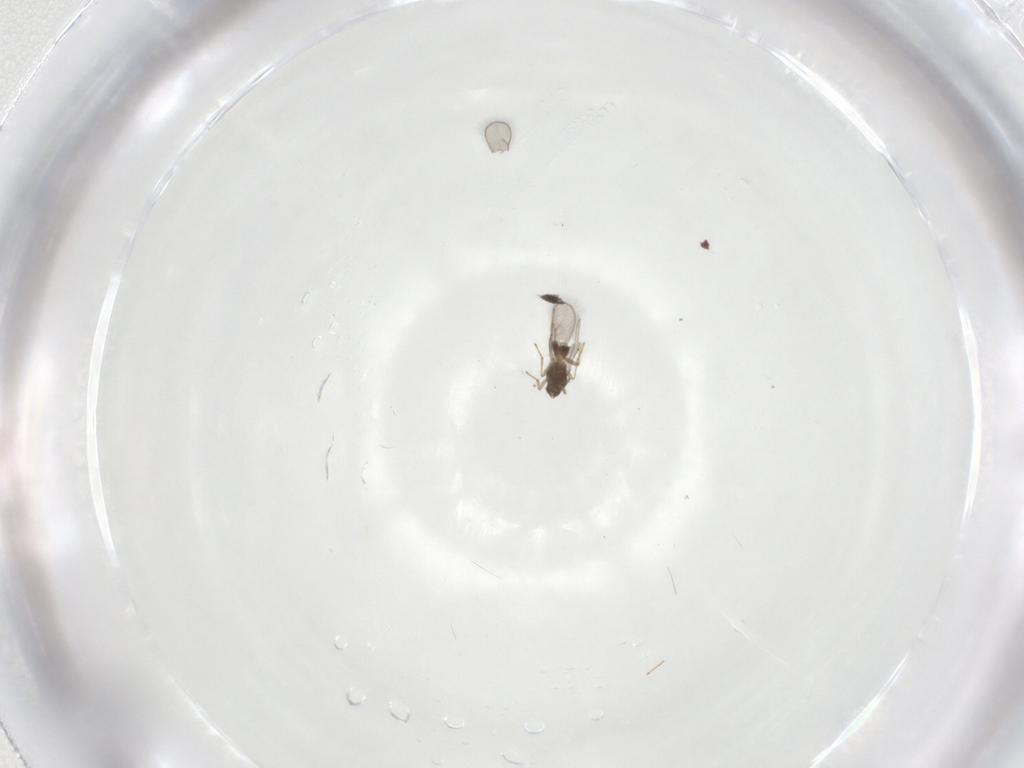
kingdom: Animalia
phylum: Arthropoda
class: Insecta
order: Hymenoptera
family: Eulophidae
